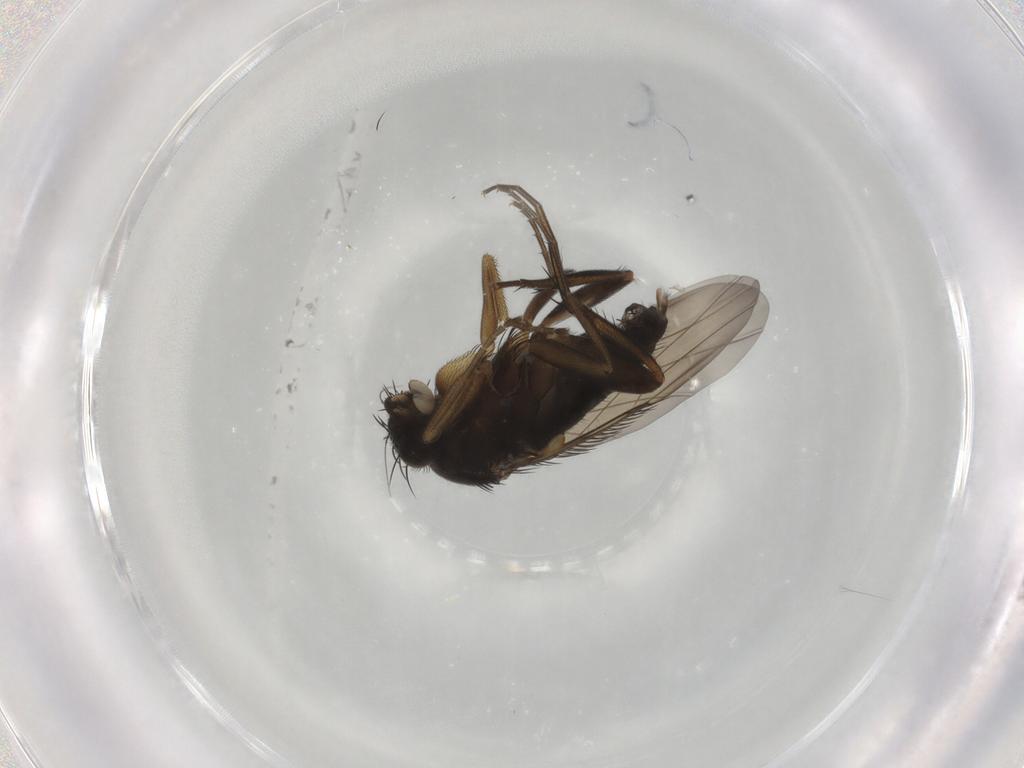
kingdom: Animalia
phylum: Arthropoda
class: Insecta
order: Diptera
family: Phoridae
